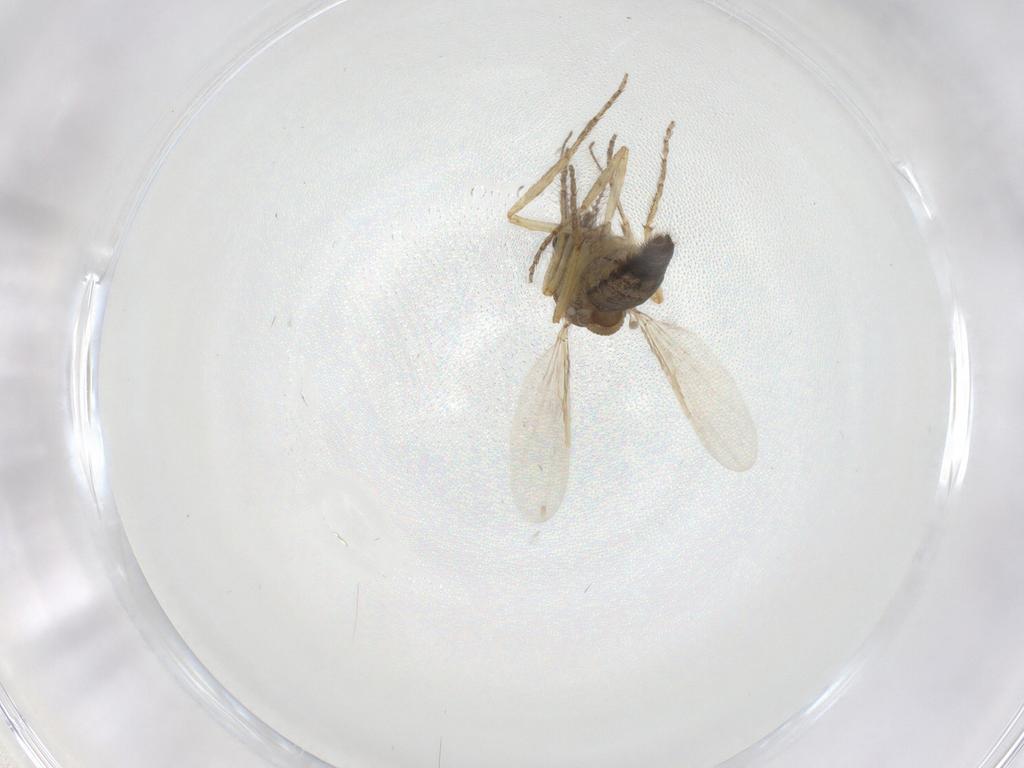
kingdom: Animalia
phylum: Arthropoda
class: Insecta
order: Diptera
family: Ceratopogonidae
